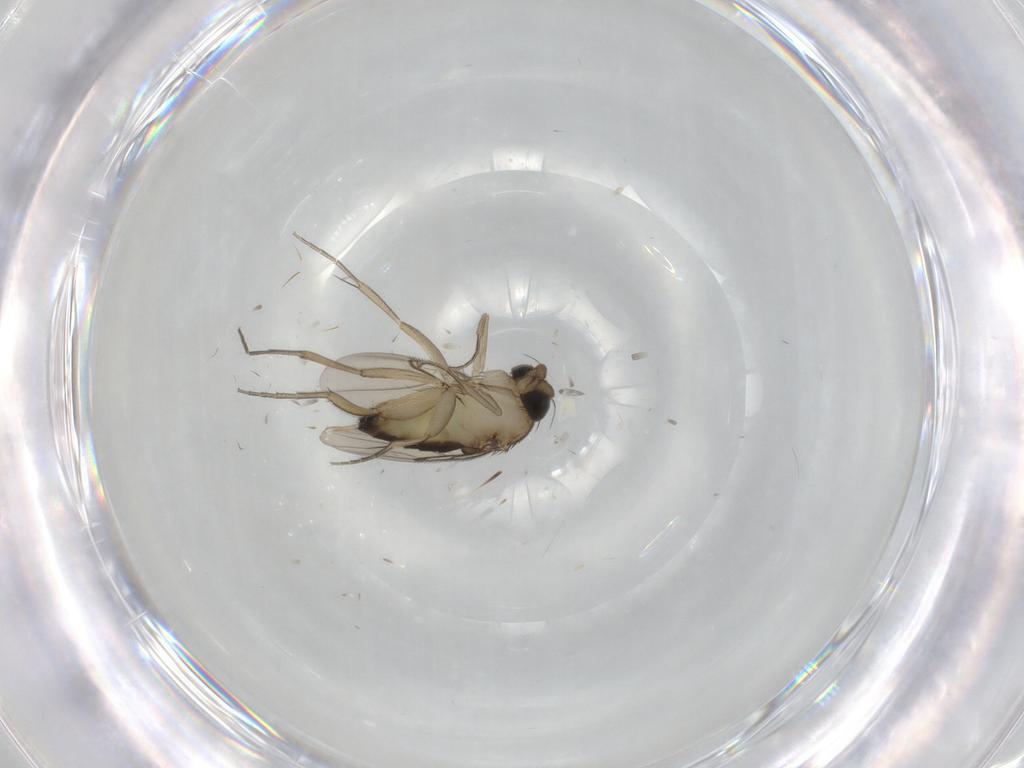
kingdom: Animalia
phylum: Arthropoda
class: Insecta
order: Diptera
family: Phoridae
